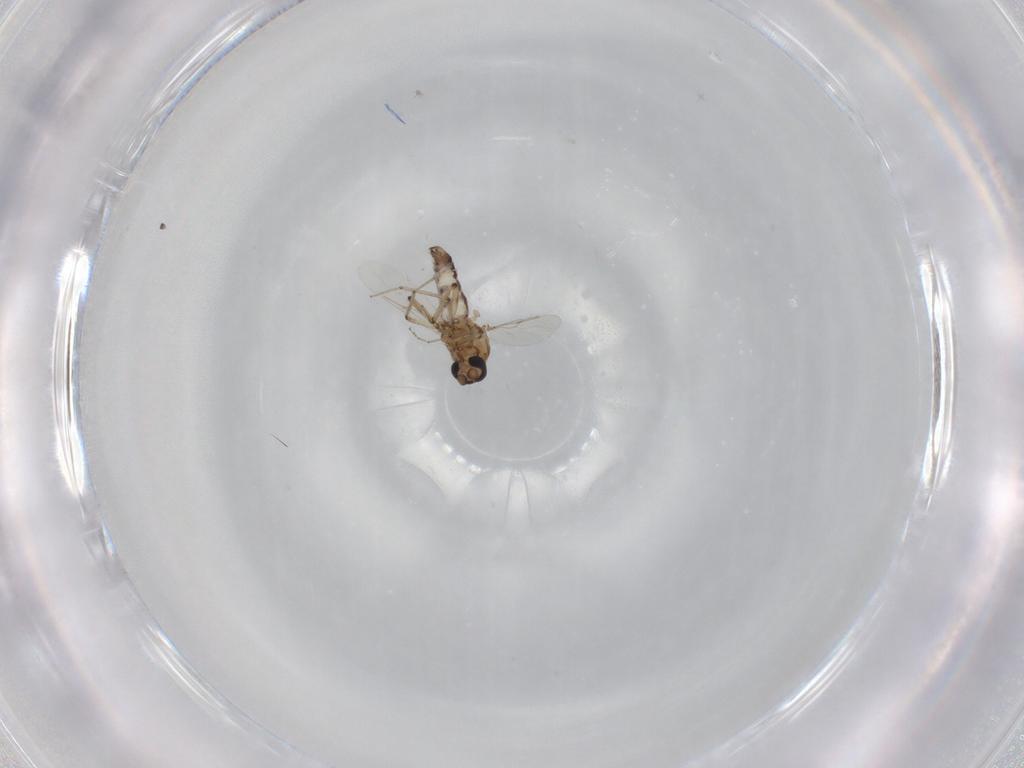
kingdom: Animalia
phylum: Arthropoda
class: Insecta
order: Diptera
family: Ceratopogonidae
